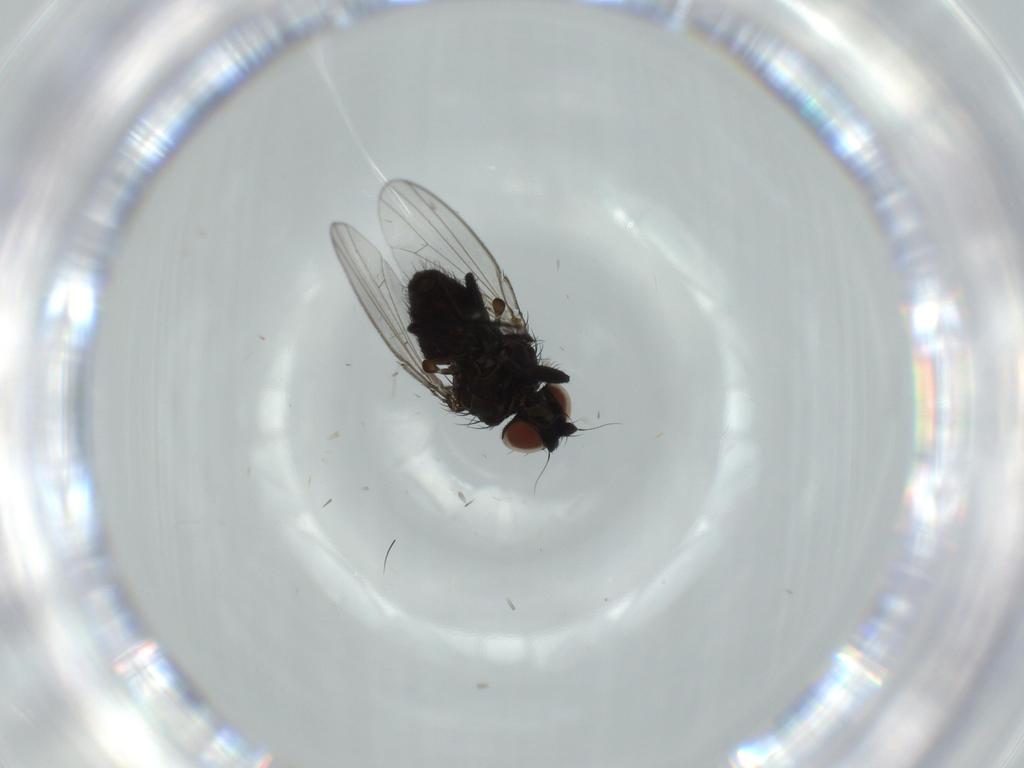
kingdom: Animalia
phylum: Arthropoda
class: Insecta
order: Diptera
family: Milichiidae
